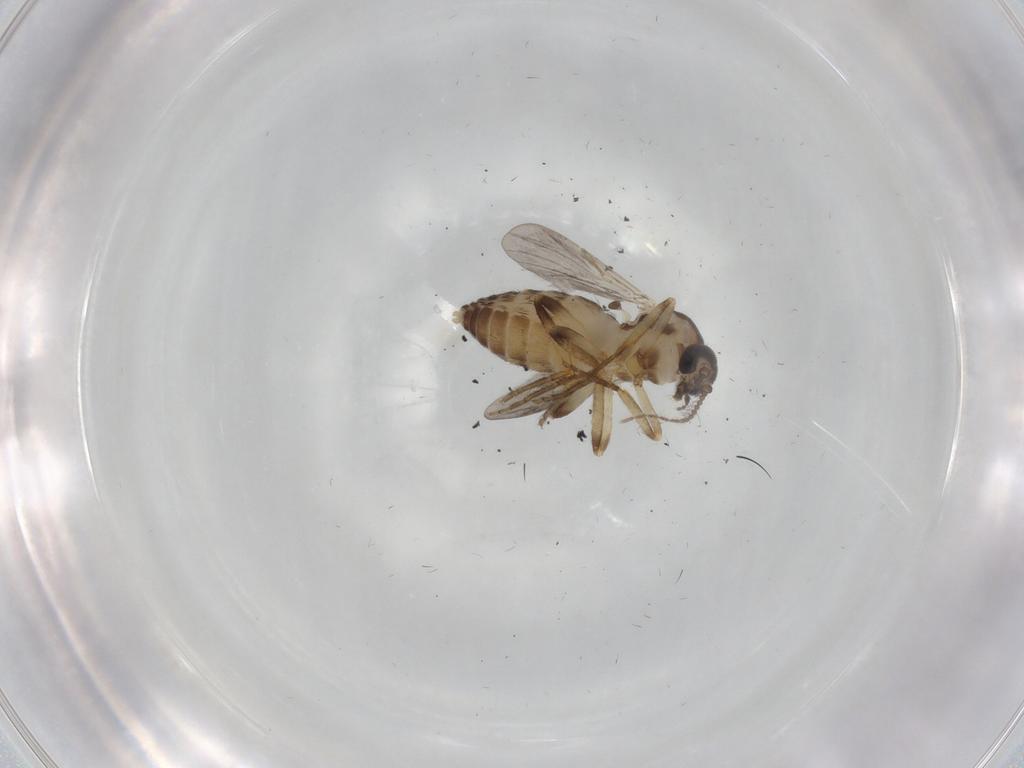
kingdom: Animalia
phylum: Arthropoda
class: Insecta
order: Diptera
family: Ceratopogonidae
